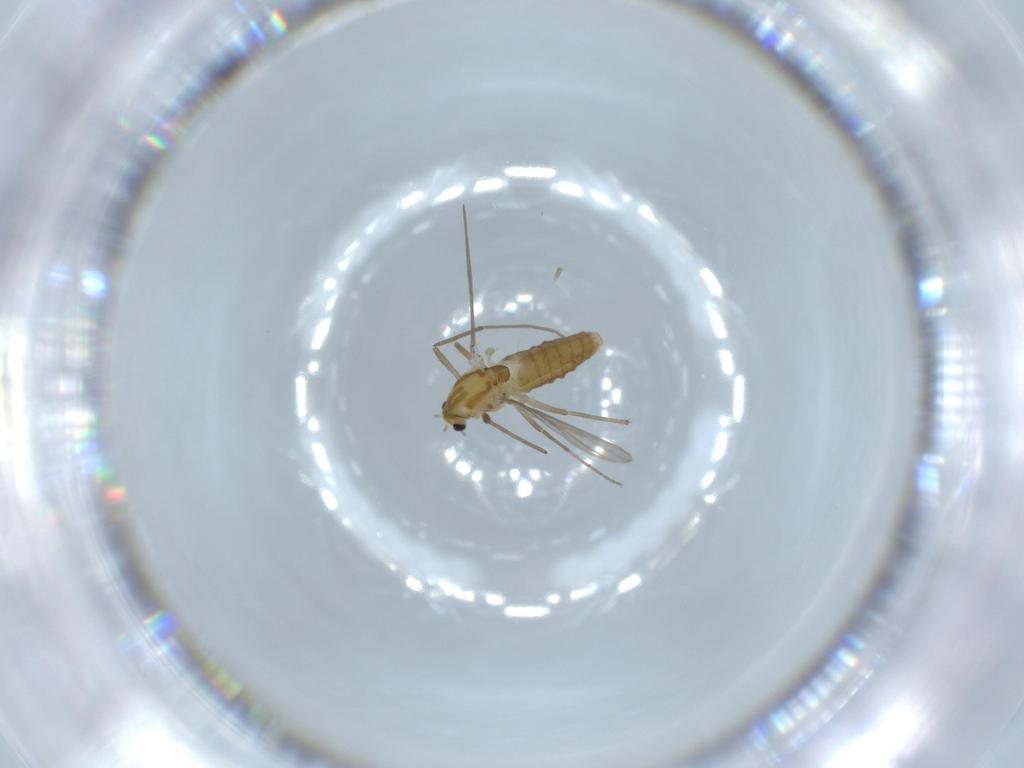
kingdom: Animalia
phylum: Arthropoda
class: Insecta
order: Diptera
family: Chironomidae
